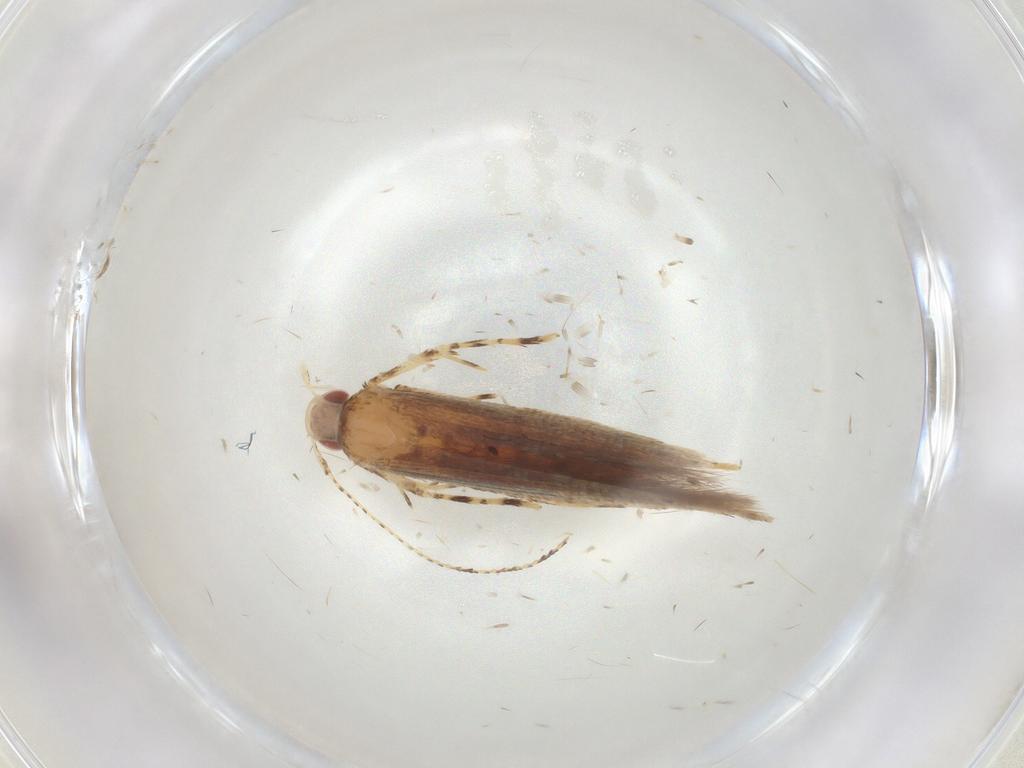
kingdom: Animalia
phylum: Arthropoda
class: Insecta
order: Lepidoptera
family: Cosmopterigidae
